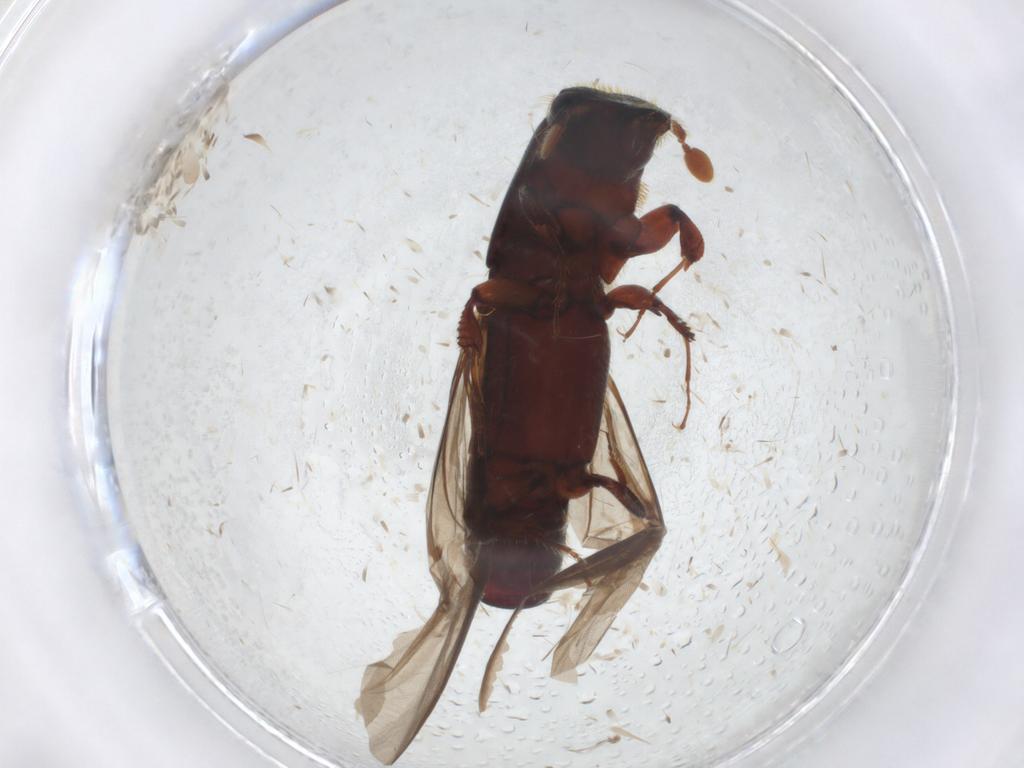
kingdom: Animalia
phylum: Arthropoda
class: Insecta
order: Coleoptera
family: Curculionidae
